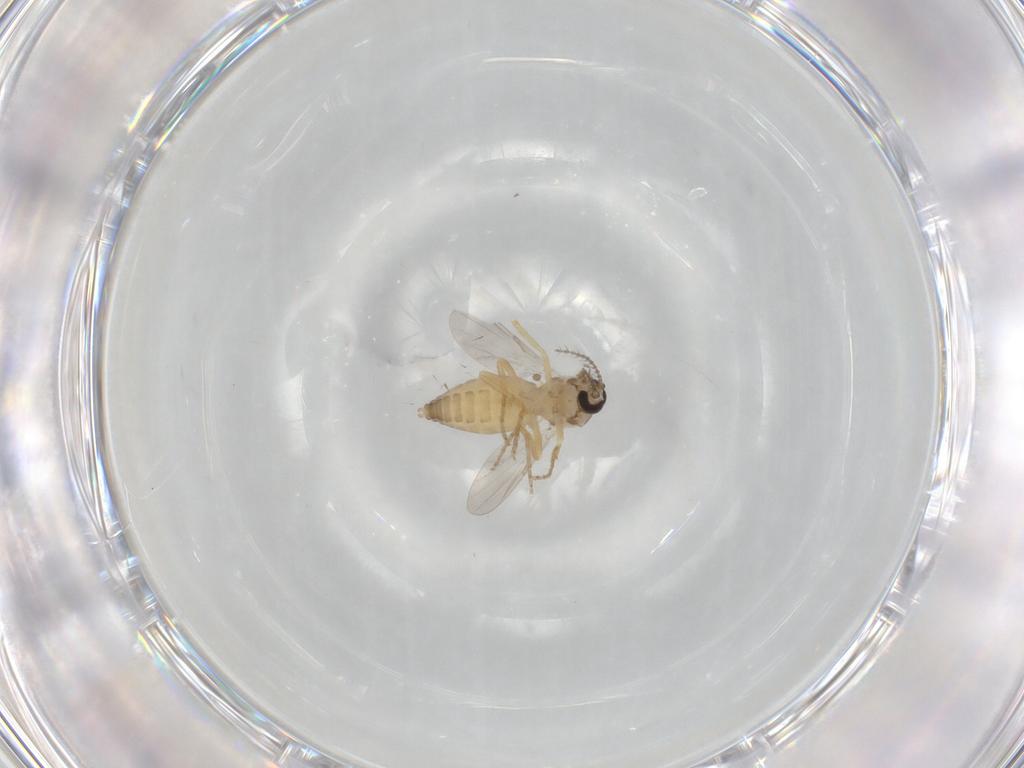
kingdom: Animalia
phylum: Arthropoda
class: Insecta
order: Diptera
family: Ceratopogonidae
